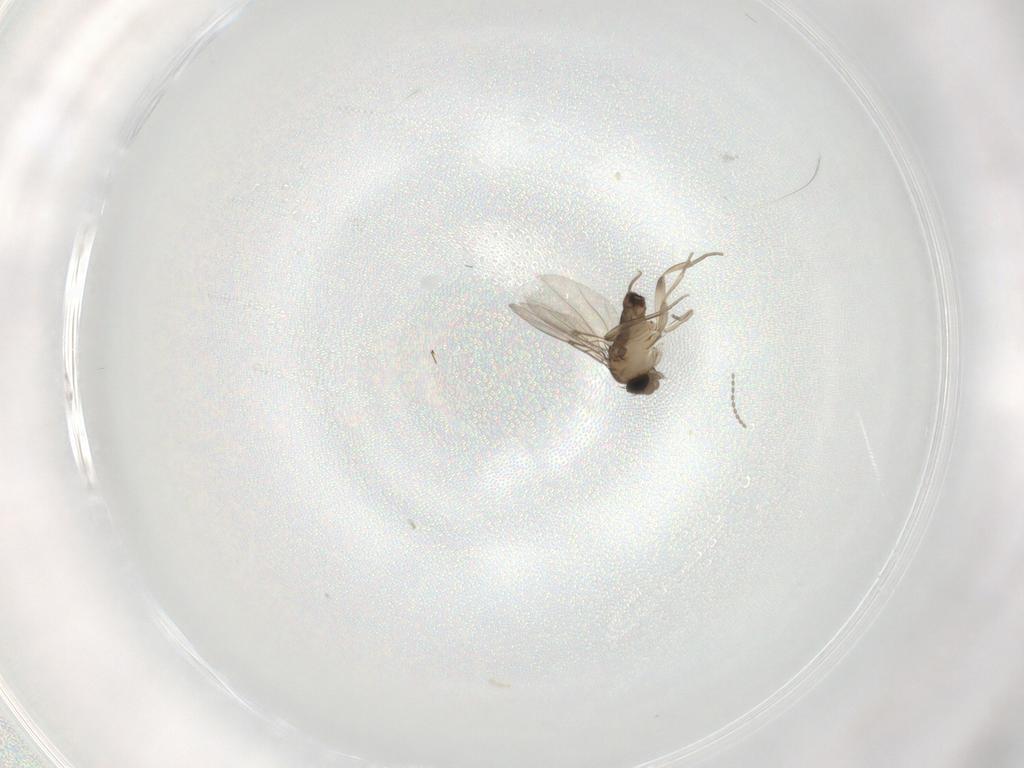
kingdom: Animalia
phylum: Arthropoda
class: Insecta
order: Diptera
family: Phoridae
